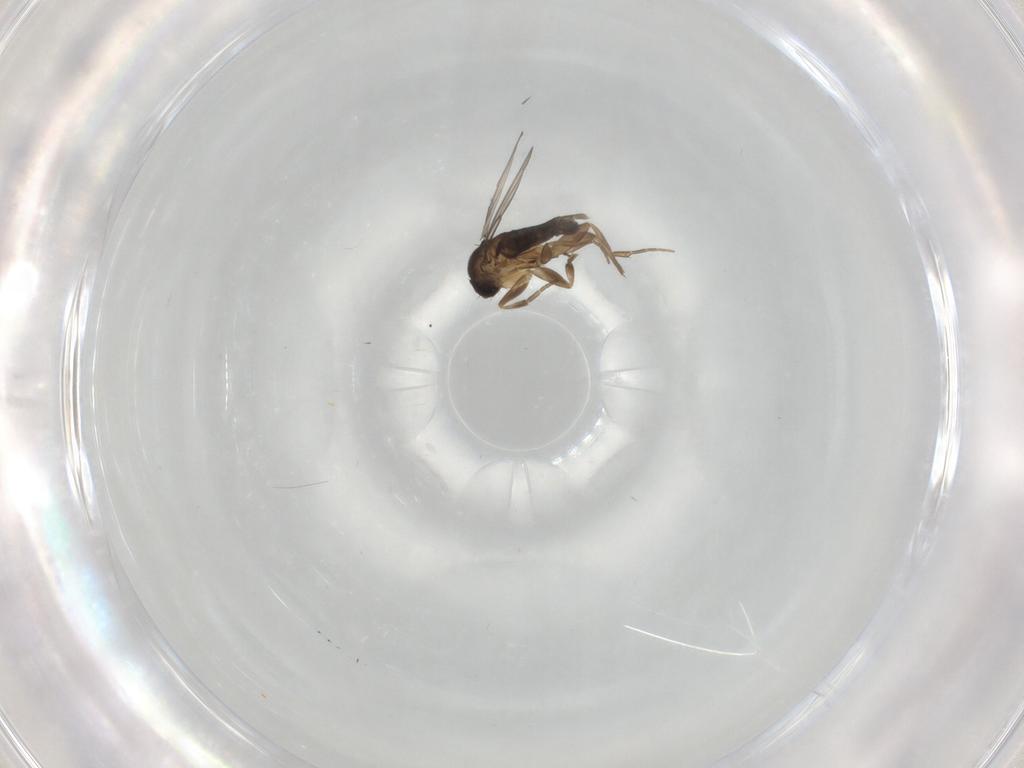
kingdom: Animalia
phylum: Arthropoda
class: Insecta
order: Diptera
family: Phoridae
